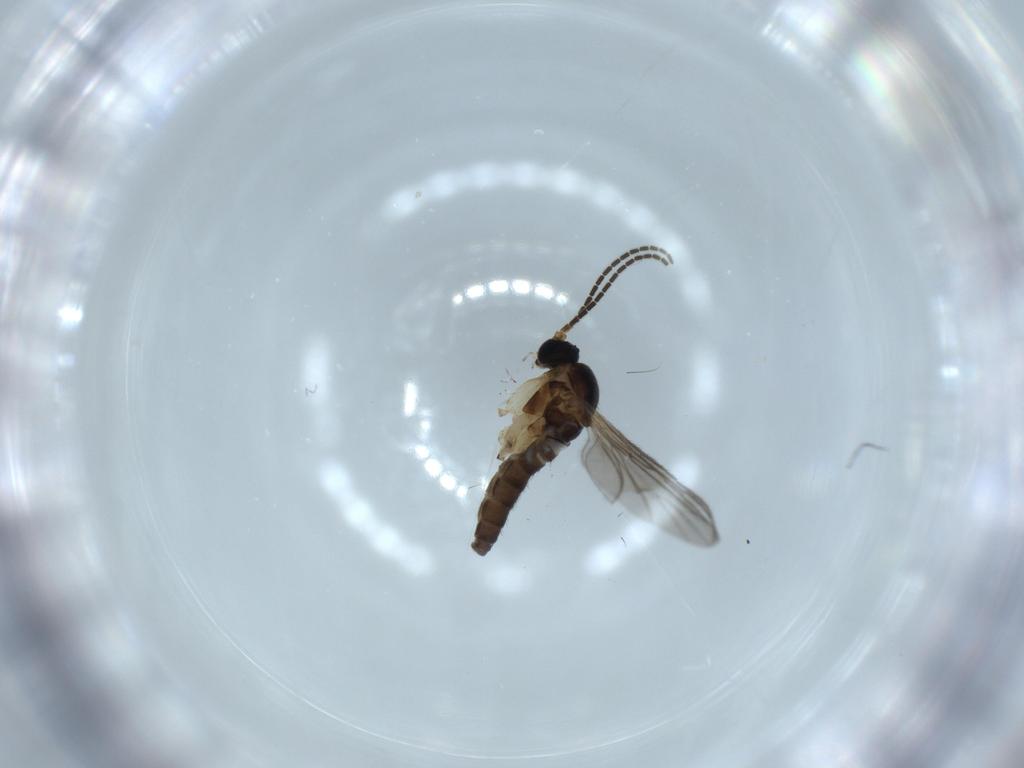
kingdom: Animalia
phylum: Arthropoda
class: Insecta
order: Diptera
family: Sciaridae
